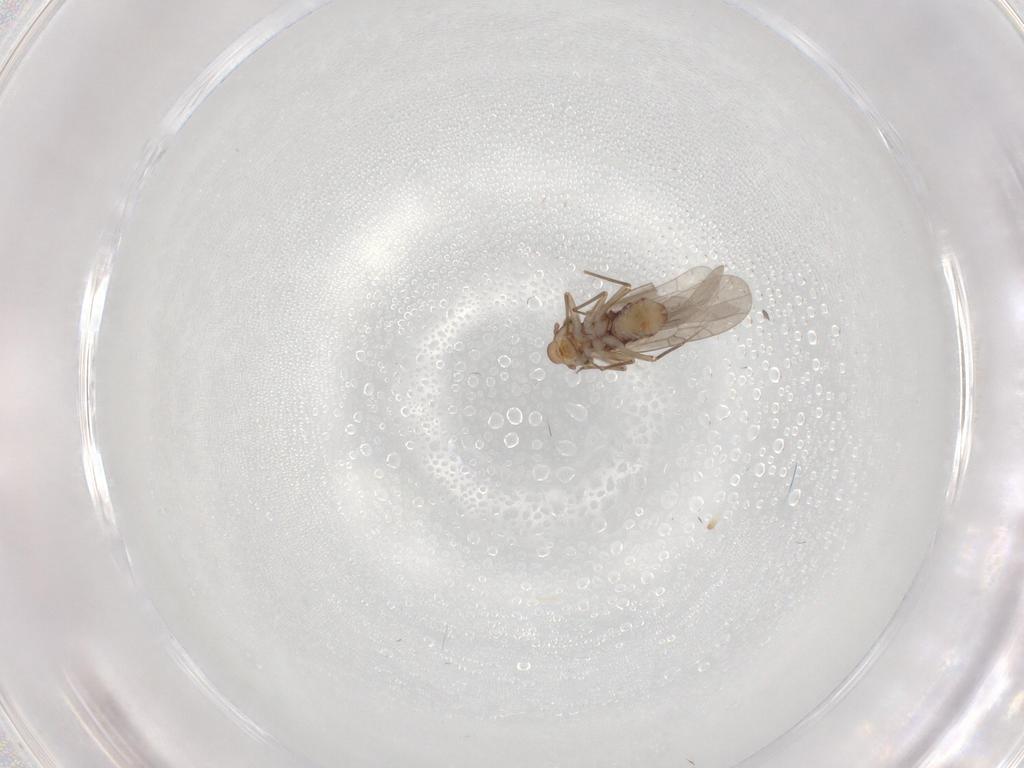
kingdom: Animalia
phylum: Arthropoda
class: Insecta
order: Psocodea
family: Lepidopsocidae
